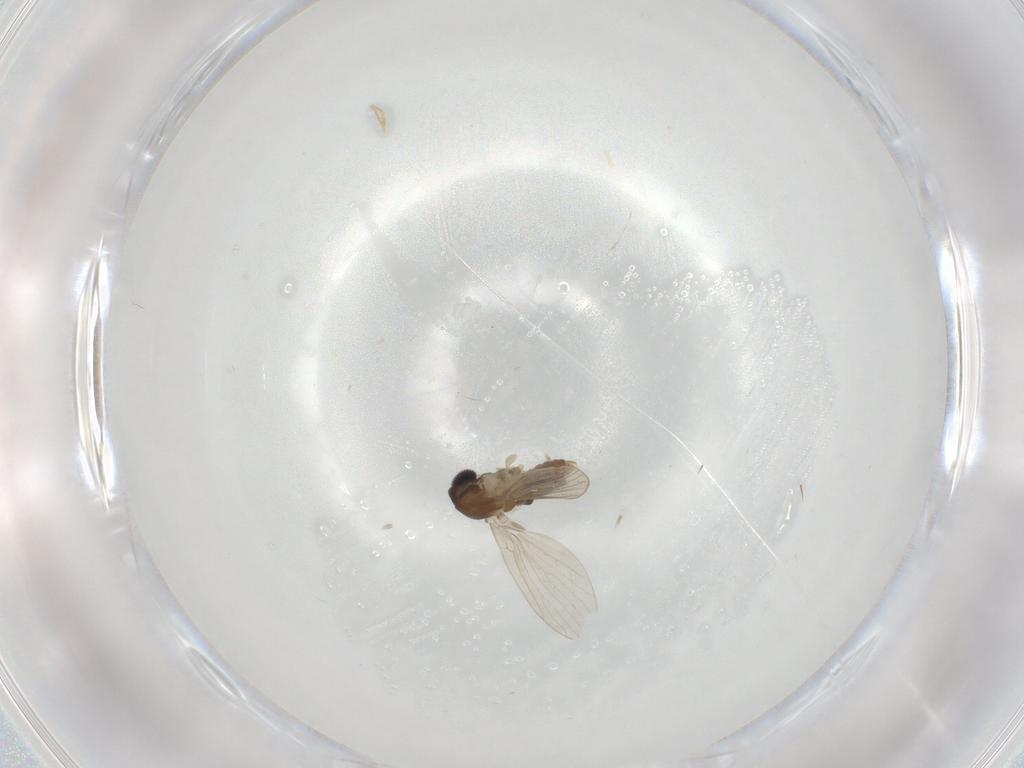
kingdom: Animalia
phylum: Arthropoda
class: Insecta
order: Diptera
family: Psychodidae
